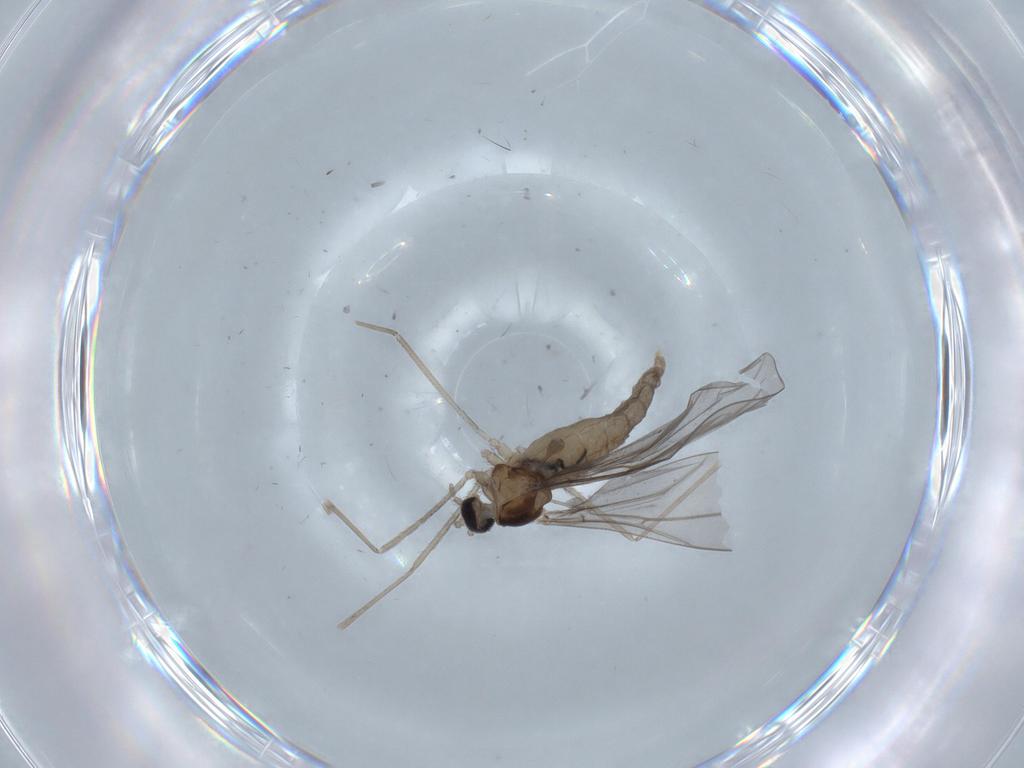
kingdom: Animalia
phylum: Arthropoda
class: Insecta
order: Diptera
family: Cecidomyiidae
